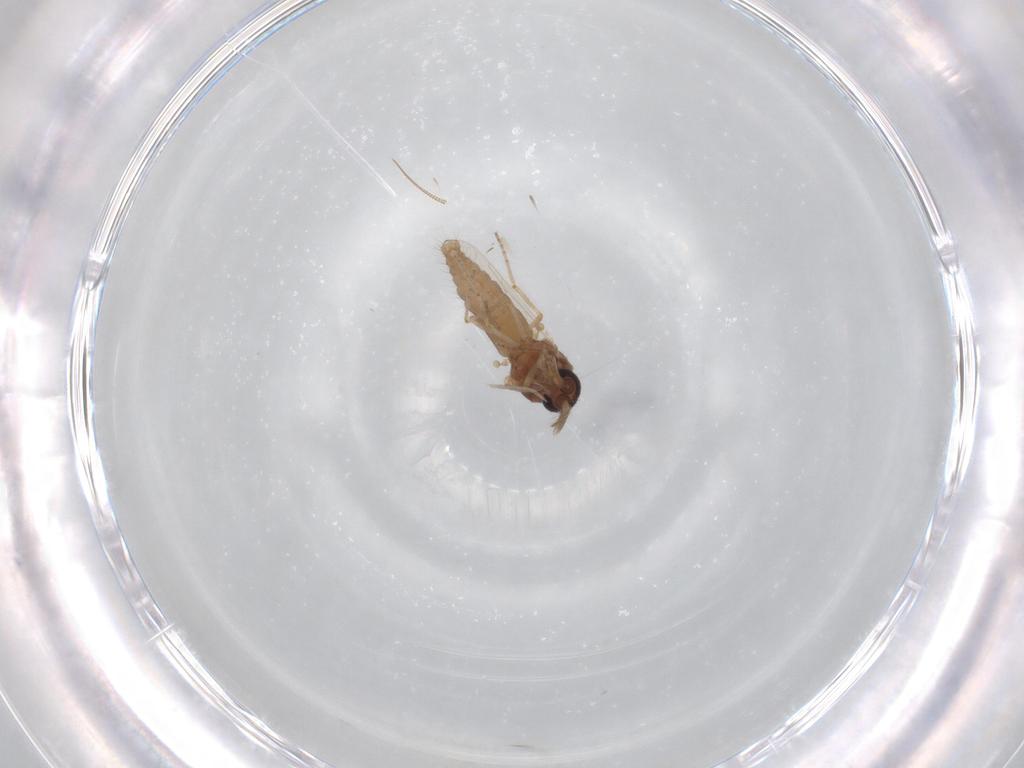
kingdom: Animalia
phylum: Arthropoda
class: Insecta
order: Diptera
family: Ceratopogonidae
